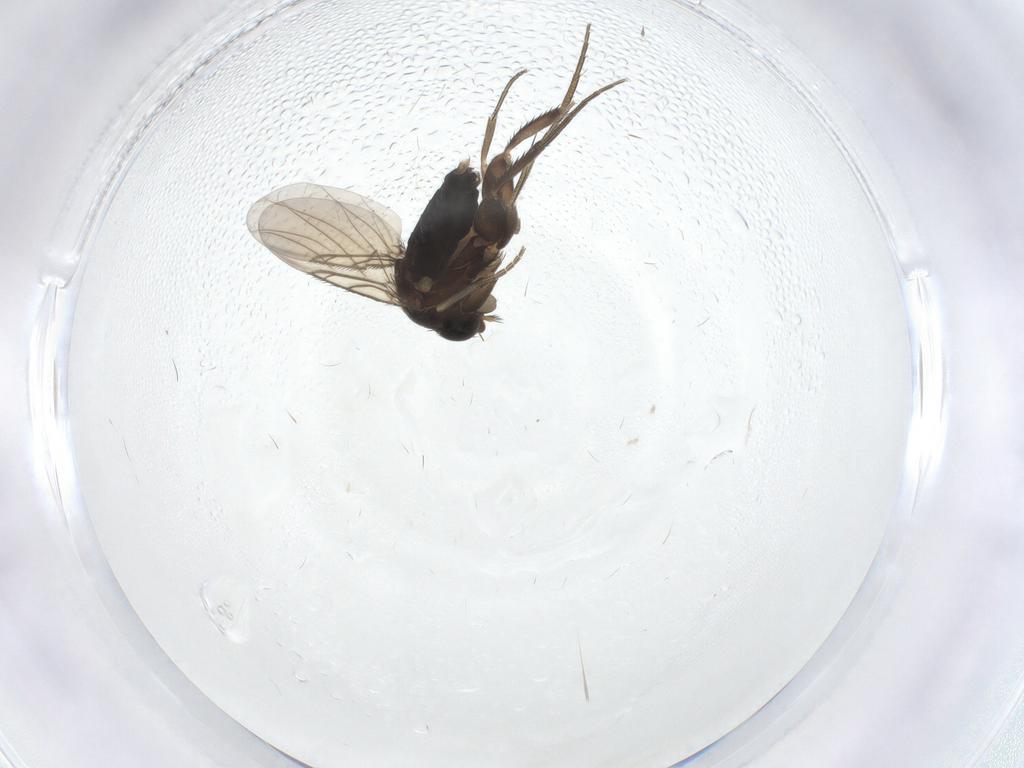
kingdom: Animalia
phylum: Arthropoda
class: Insecta
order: Diptera
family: Phoridae
